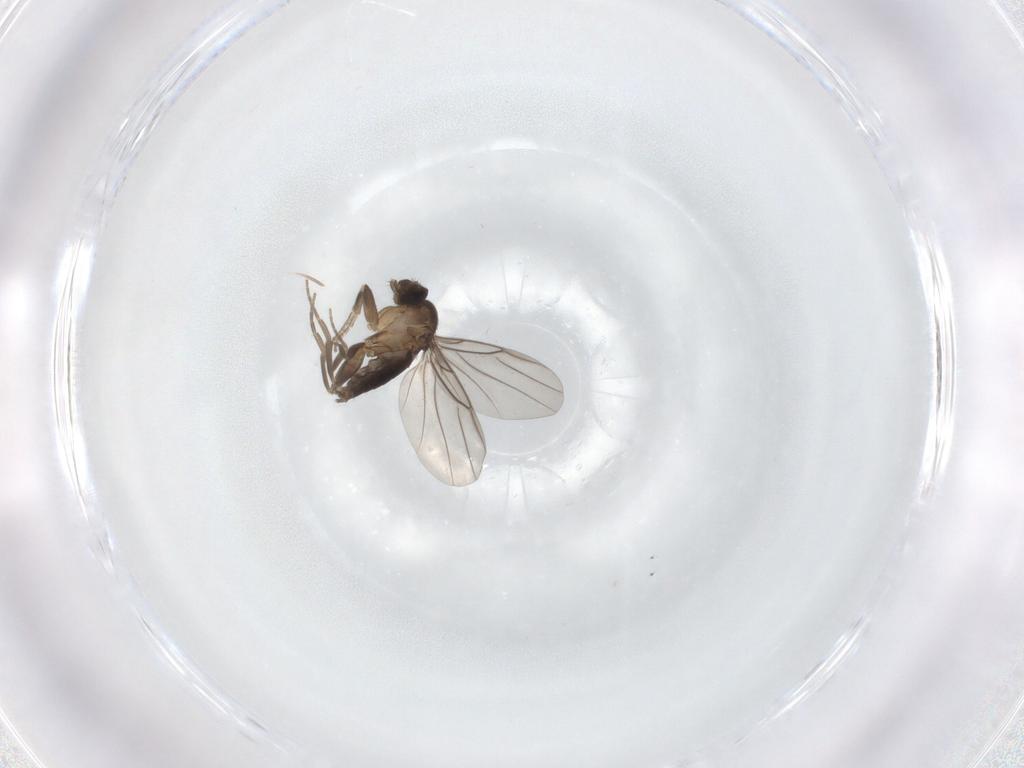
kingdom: Animalia
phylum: Arthropoda
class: Insecta
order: Diptera
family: Phoridae
